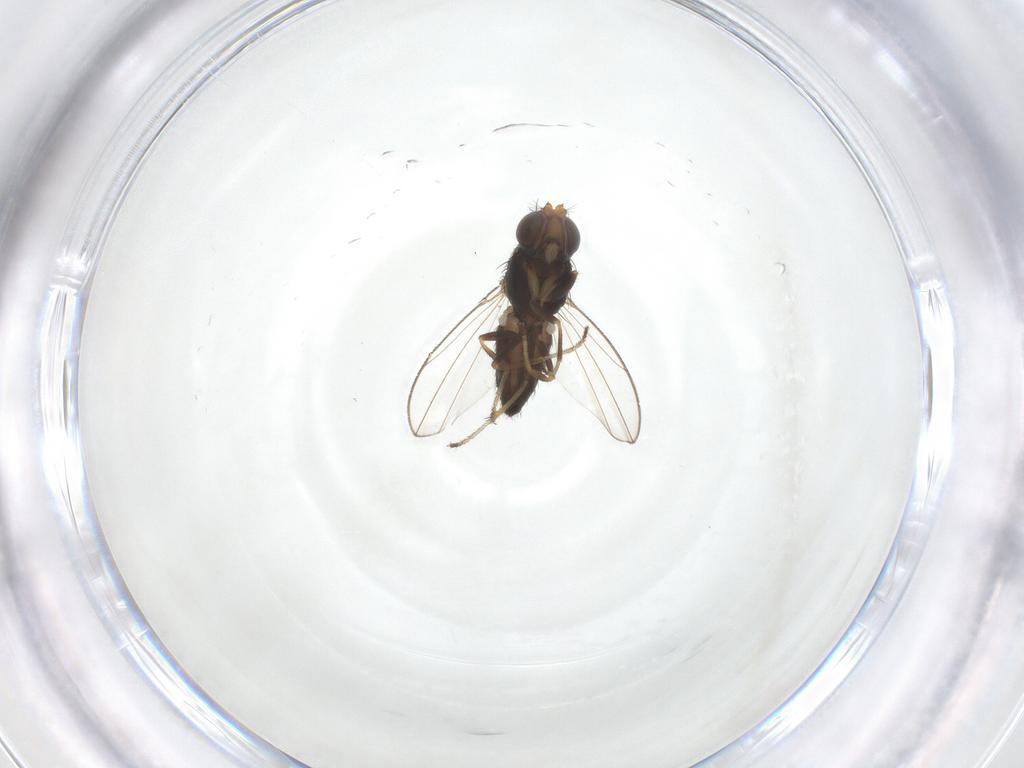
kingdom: Animalia
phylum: Arthropoda
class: Insecta
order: Diptera
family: Ephydridae
